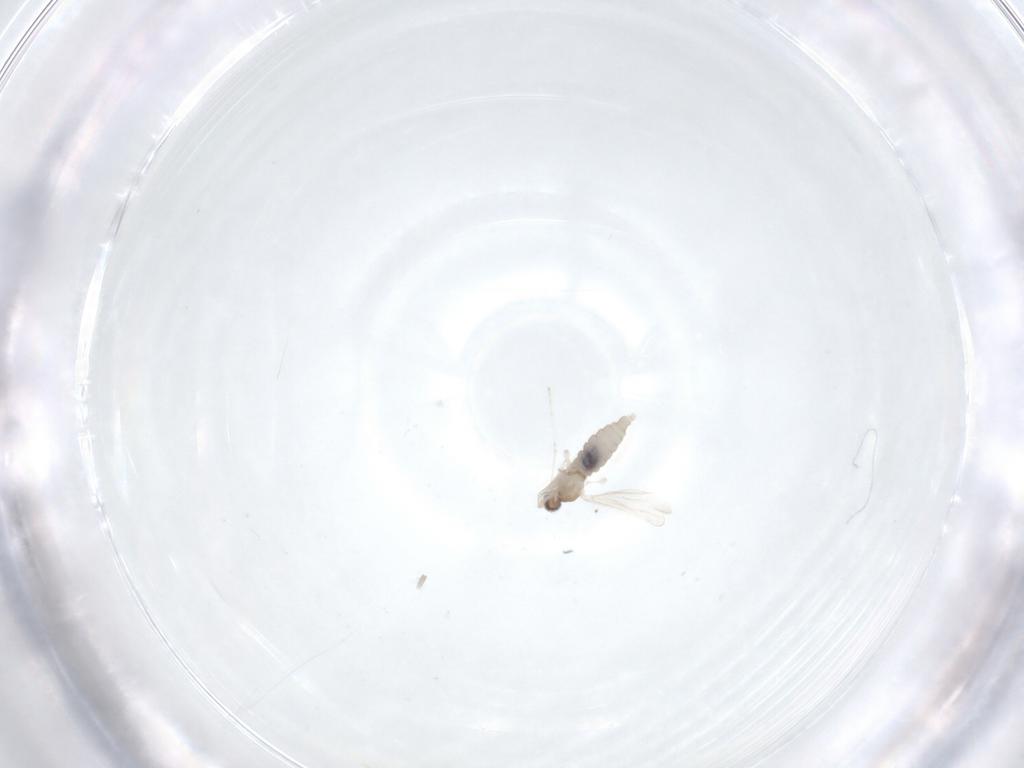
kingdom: Animalia
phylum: Arthropoda
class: Insecta
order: Diptera
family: Cecidomyiidae
